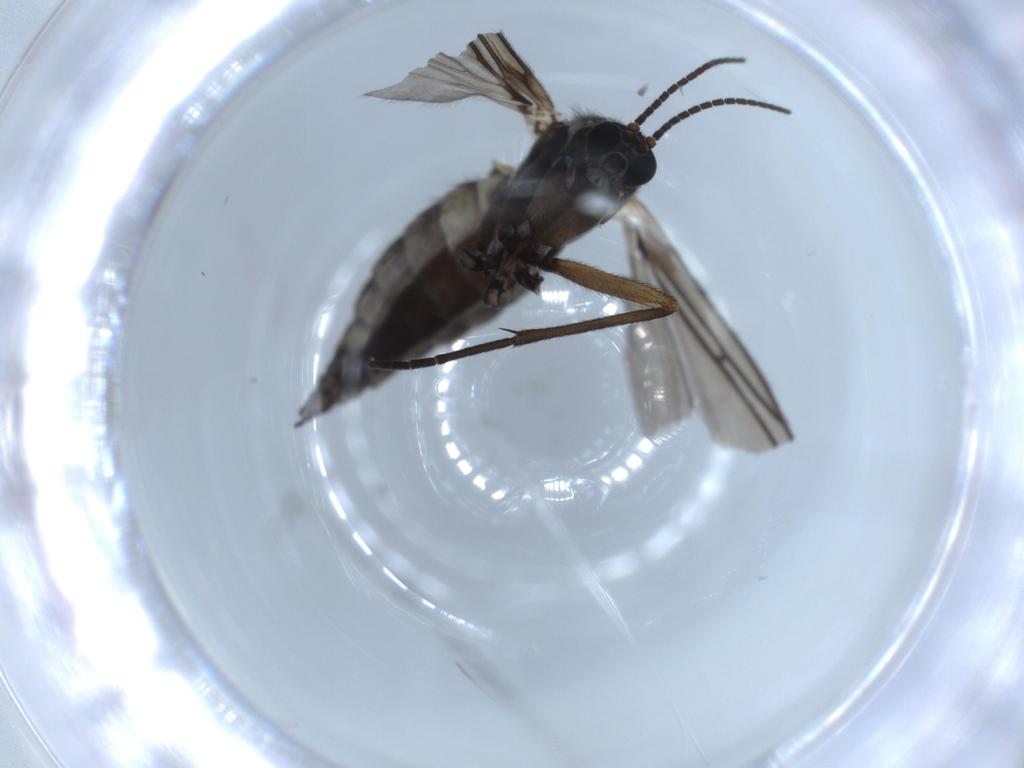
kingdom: Animalia
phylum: Arthropoda
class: Insecta
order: Diptera
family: Sciaridae
